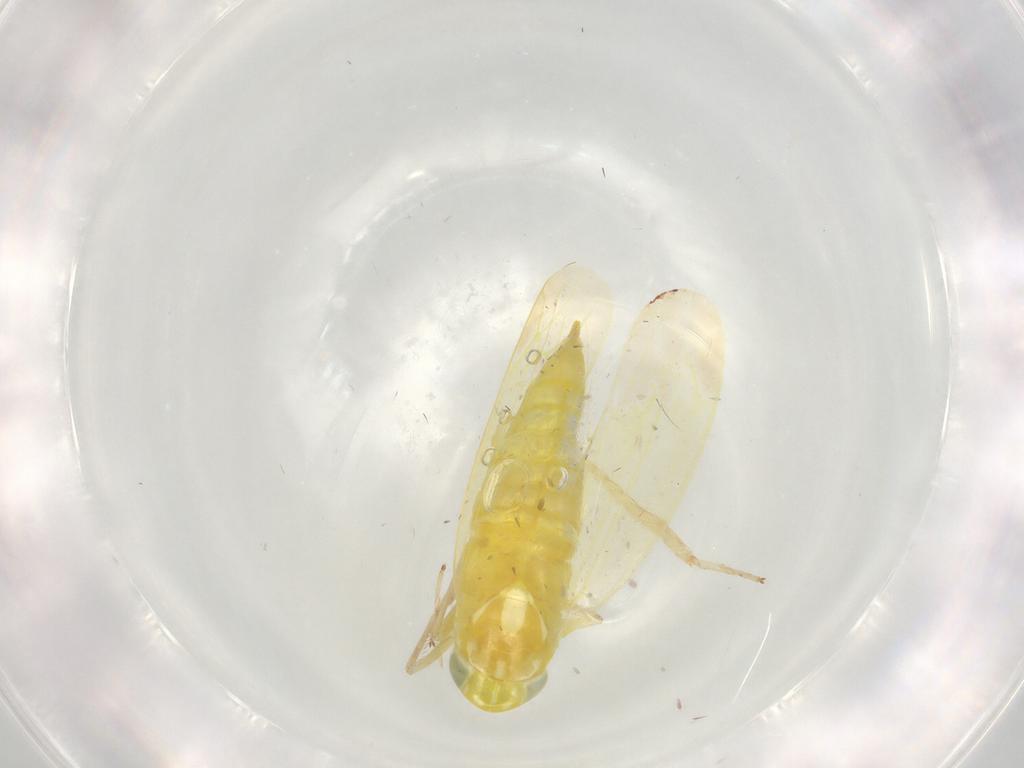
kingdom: Animalia
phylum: Arthropoda
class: Insecta
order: Hemiptera
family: Cicadellidae
